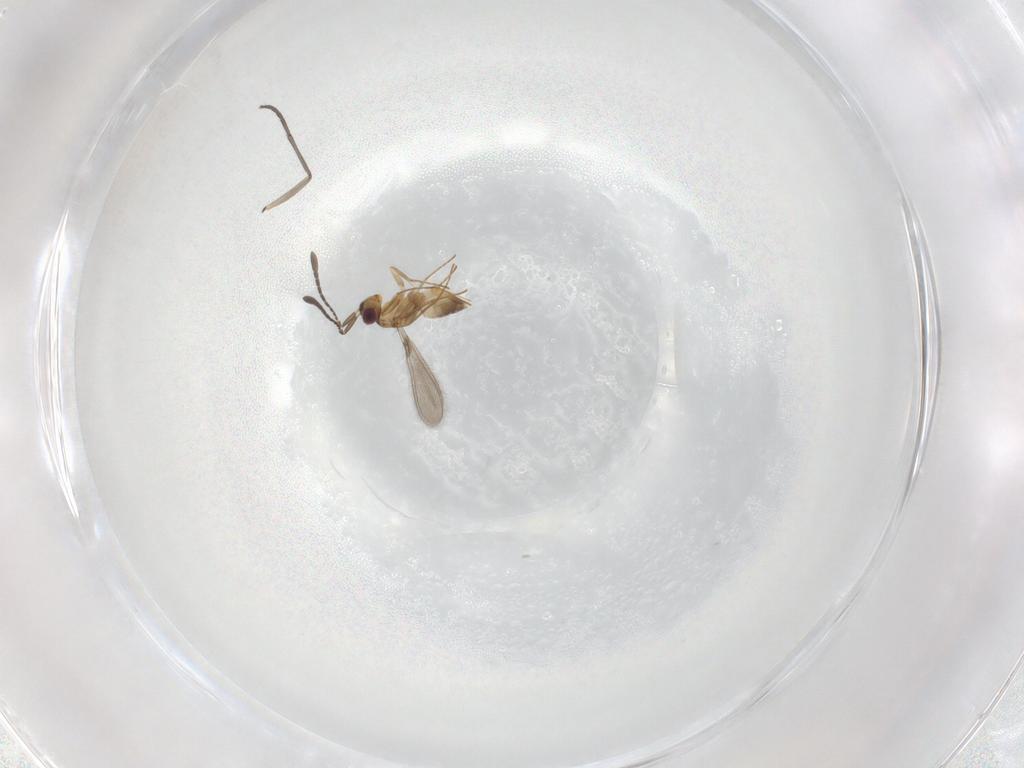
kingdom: Animalia
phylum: Arthropoda
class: Insecta
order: Hymenoptera
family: Mymaridae
